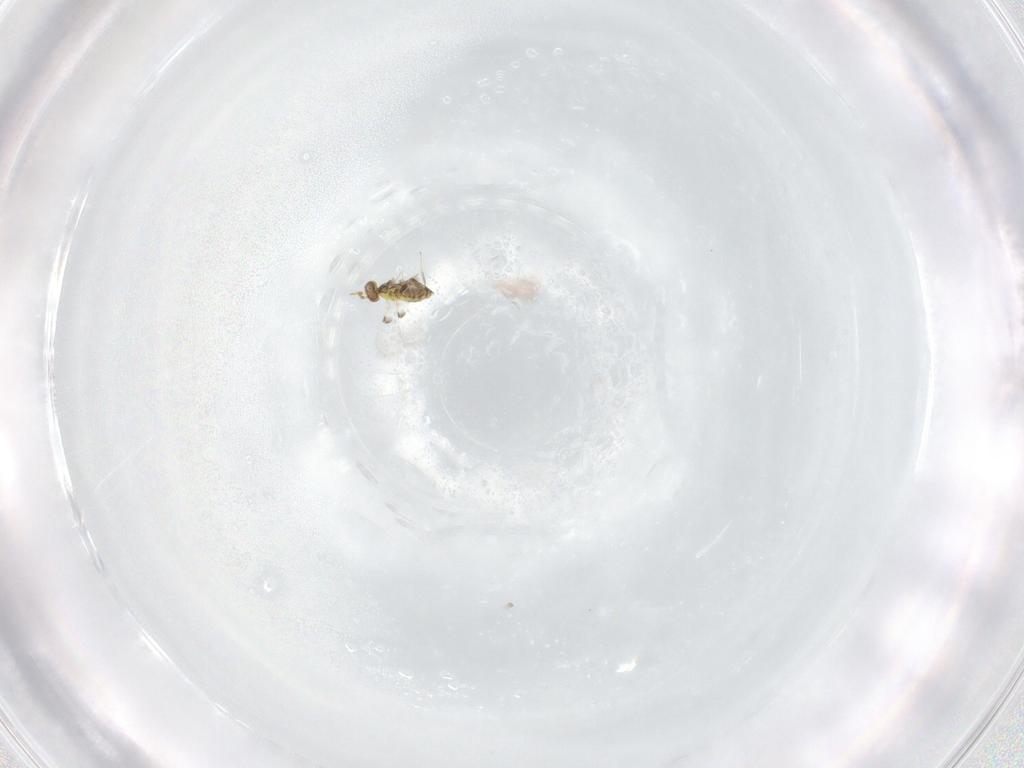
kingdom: Animalia
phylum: Arthropoda
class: Insecta
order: Hymenoptera
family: Trichogrammatidae
